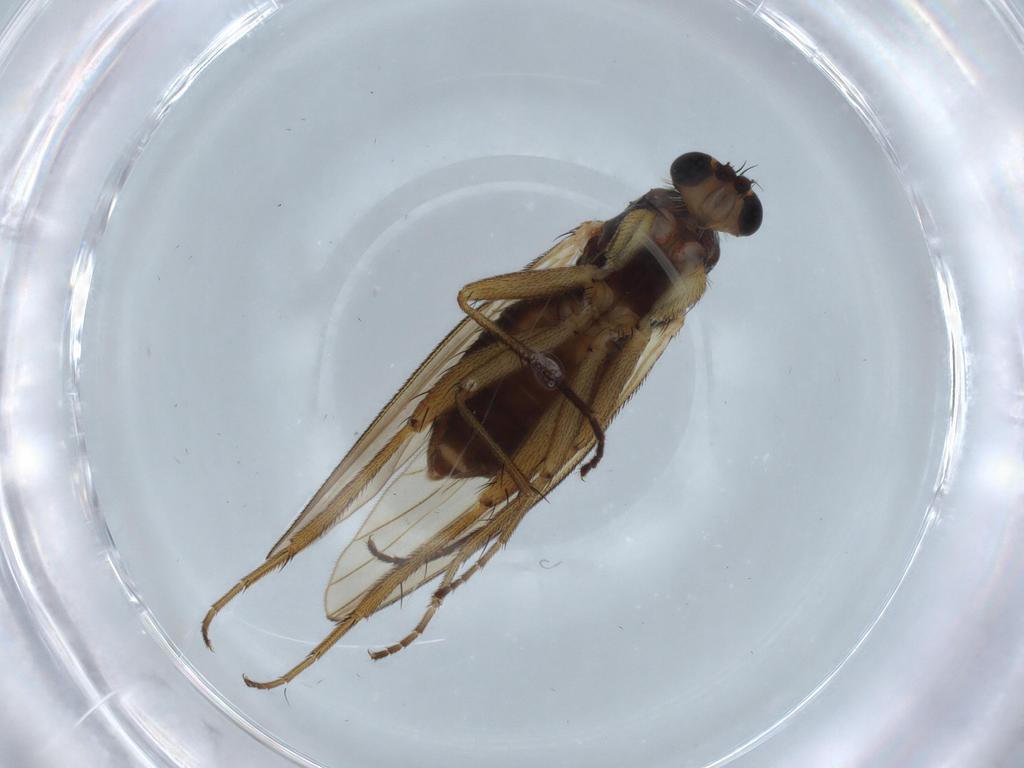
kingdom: Animalia
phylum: Arthropoda
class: Insecta
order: Diptera
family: Lonchopteridae
